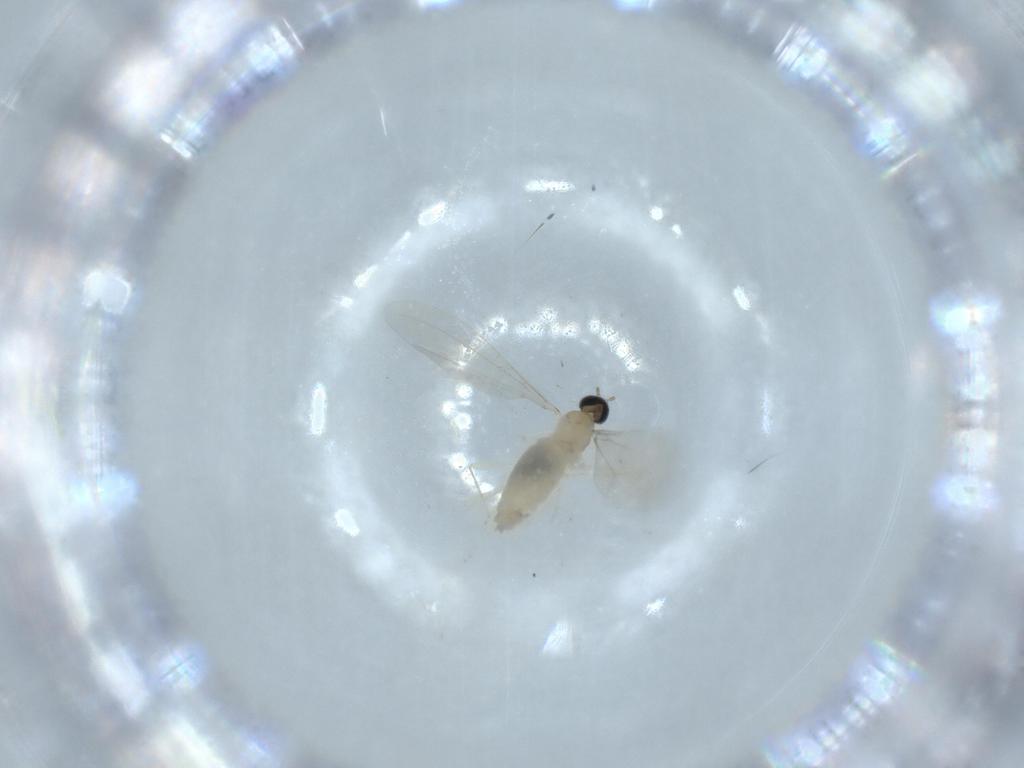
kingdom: Animalia
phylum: Arthropoda
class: Insecta
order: Diptera
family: Cecidomyiidae
